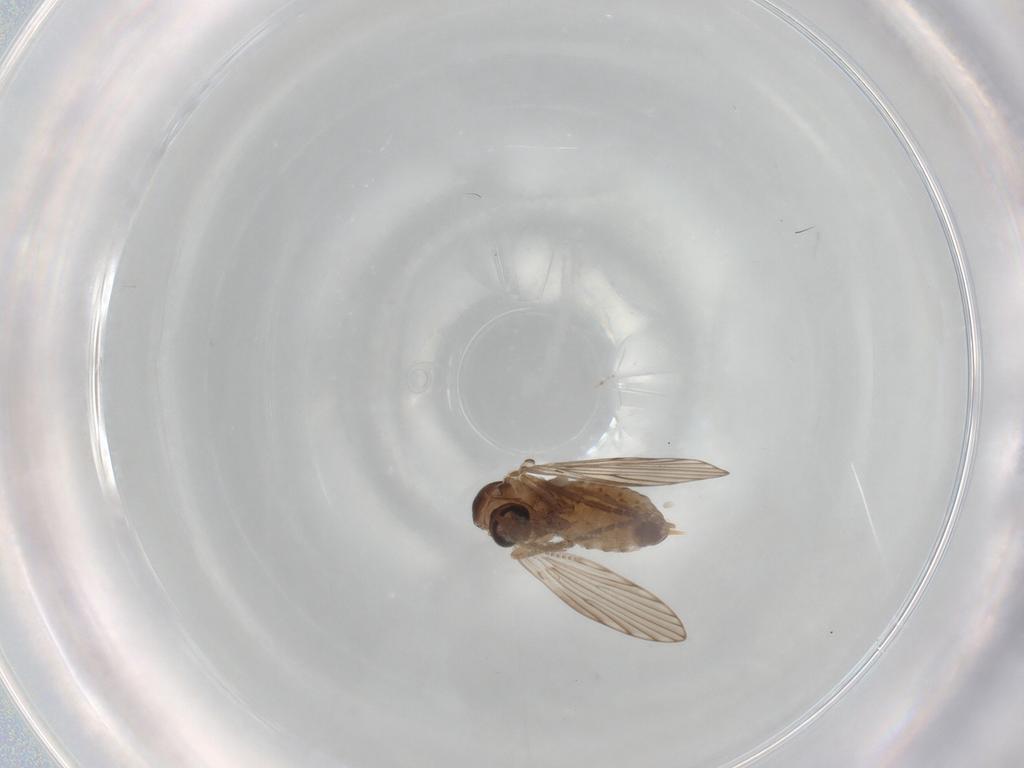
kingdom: Animalia
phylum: Arthropoda
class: Insecta
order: Diptera
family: Psychodidae
